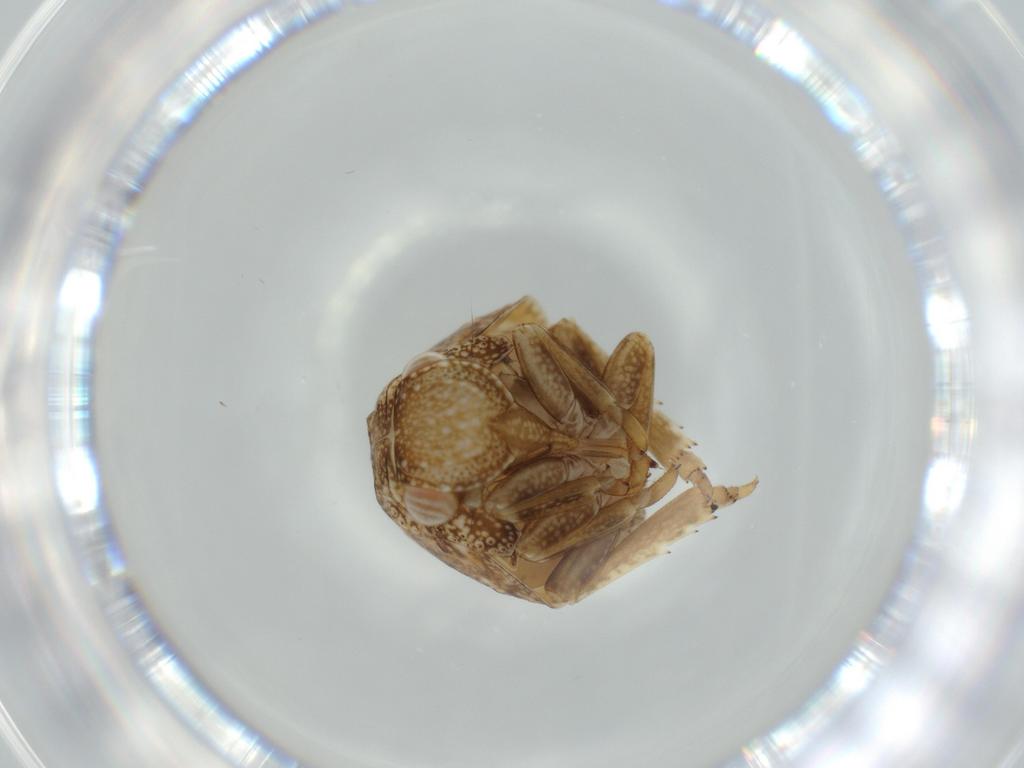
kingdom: Animalia
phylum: Arthropoda
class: Insecta
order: Hemiptera
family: Acanaloniidae
